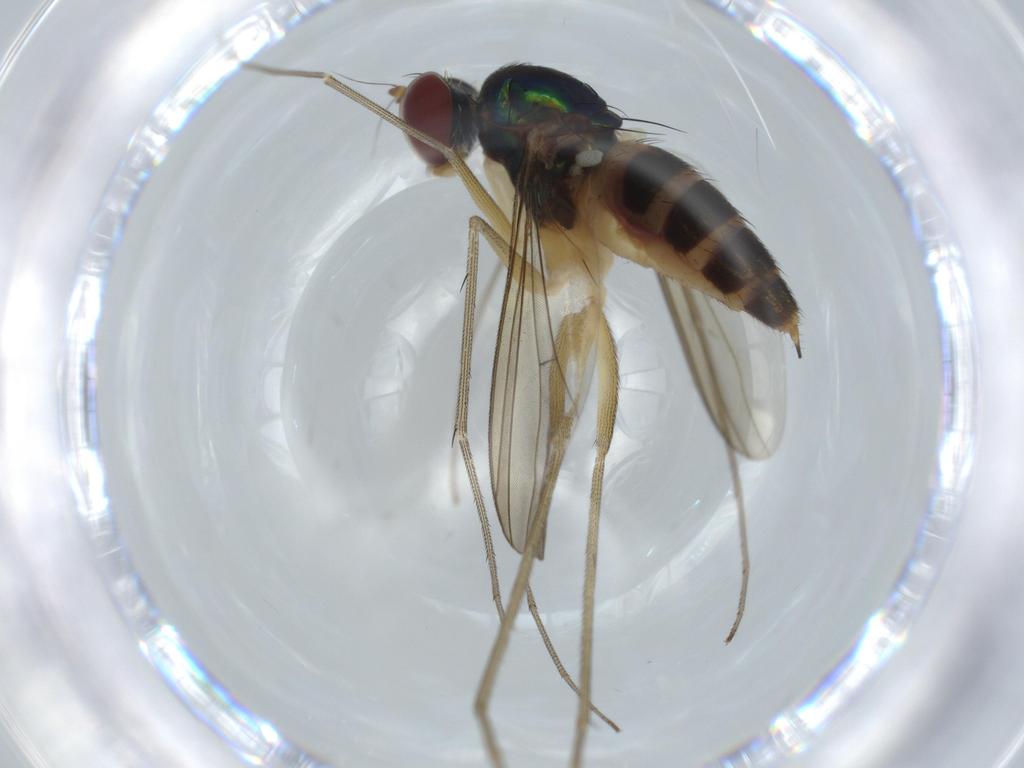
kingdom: Animalia
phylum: Arthropoda
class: Insecta
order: Diptera
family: Dolichopodidae
